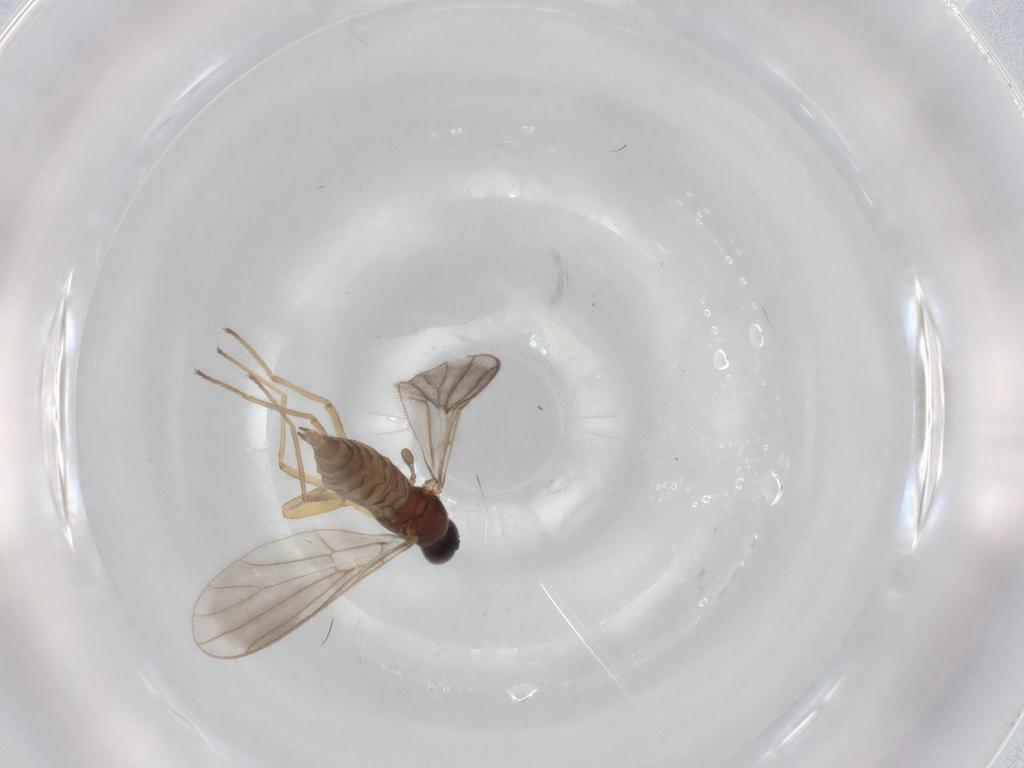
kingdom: Animalia
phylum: Arthropoda
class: Insecta
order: Diptera
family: Empididae
